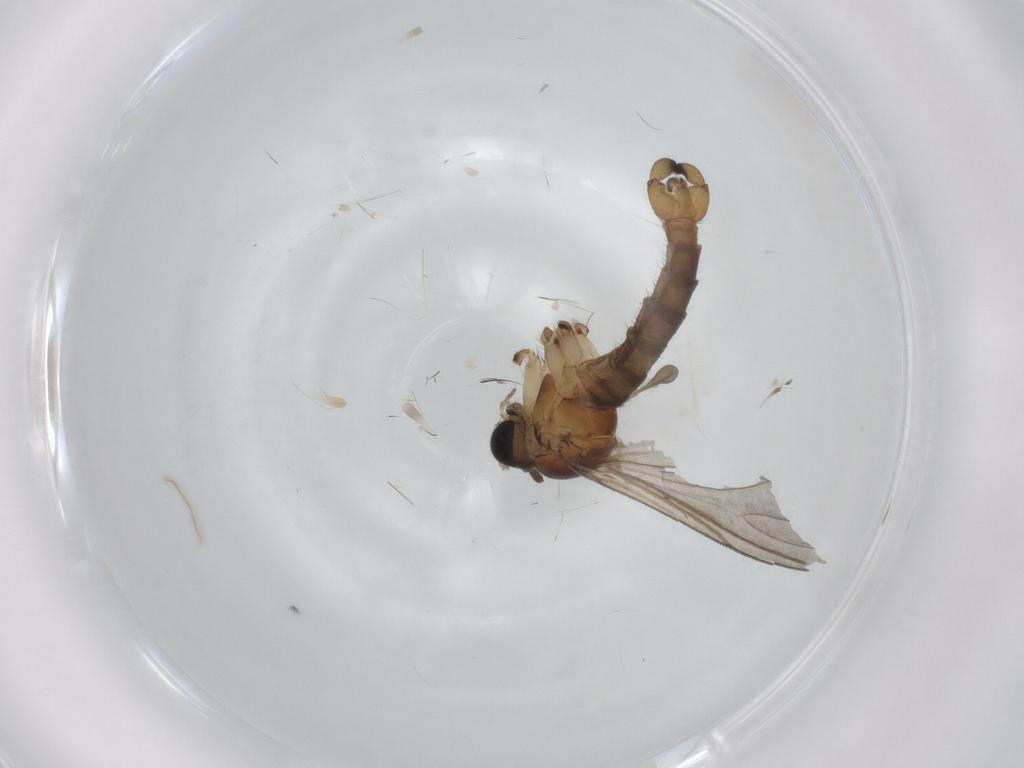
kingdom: Animalia
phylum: Arthropoda
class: Insecta
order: Diptera
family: Sciaridae
